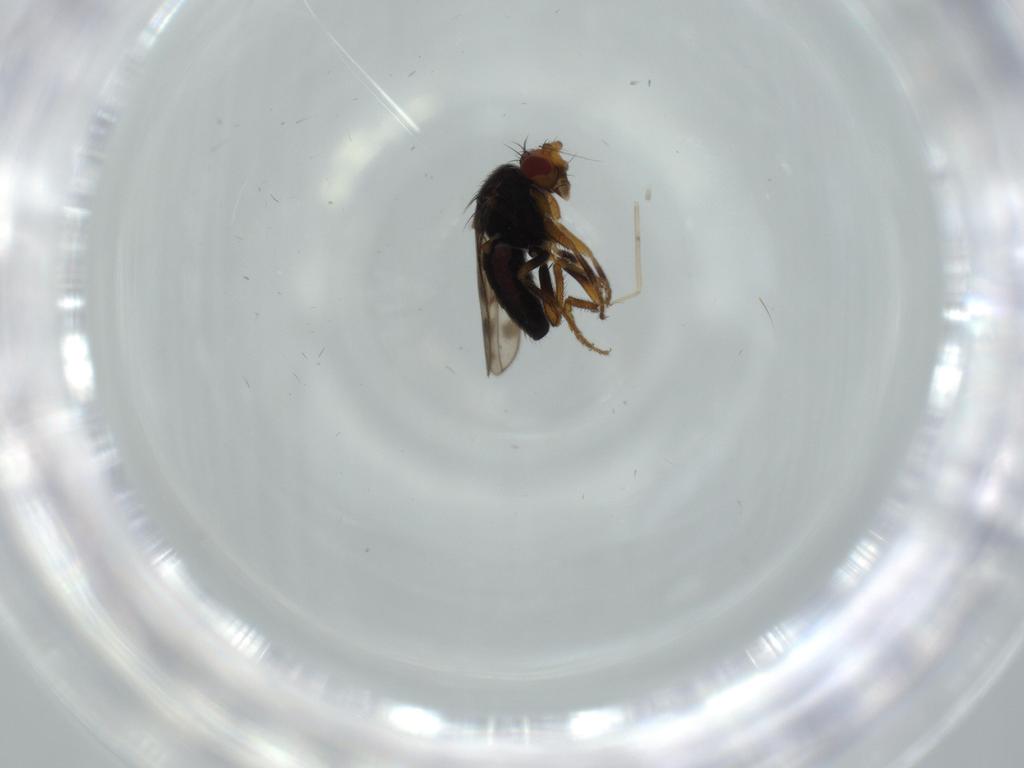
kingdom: Animalia
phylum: Arthropoda
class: Insecta
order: Diptera
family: Sphaeroceridae
